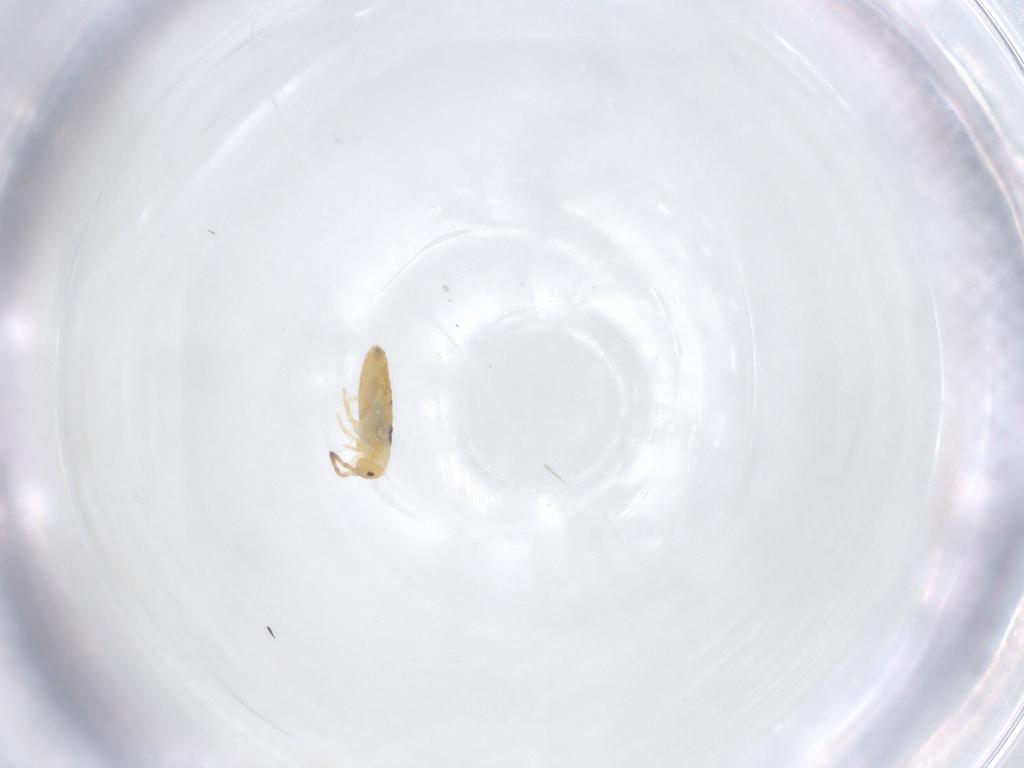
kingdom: Animalia
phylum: Arthropoda
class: Collembola
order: Entomobryomorpha
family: Entomobryidae
